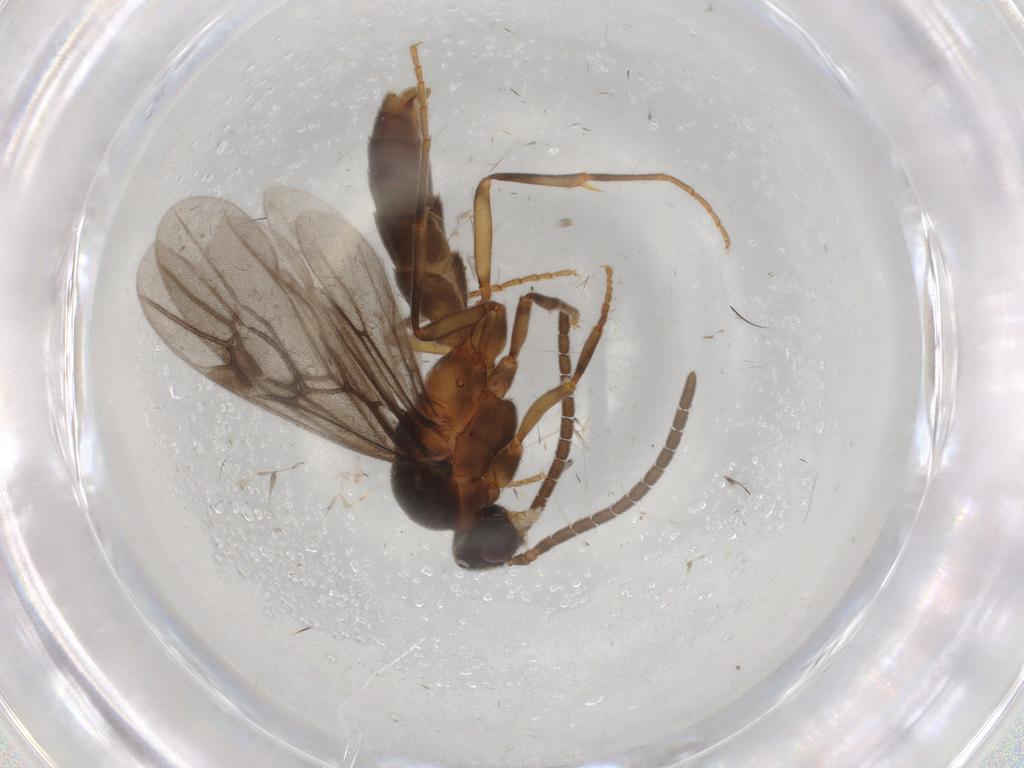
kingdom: Animalia
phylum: Arthropoda
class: Insecta
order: Hymenoptera
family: Formicidae
